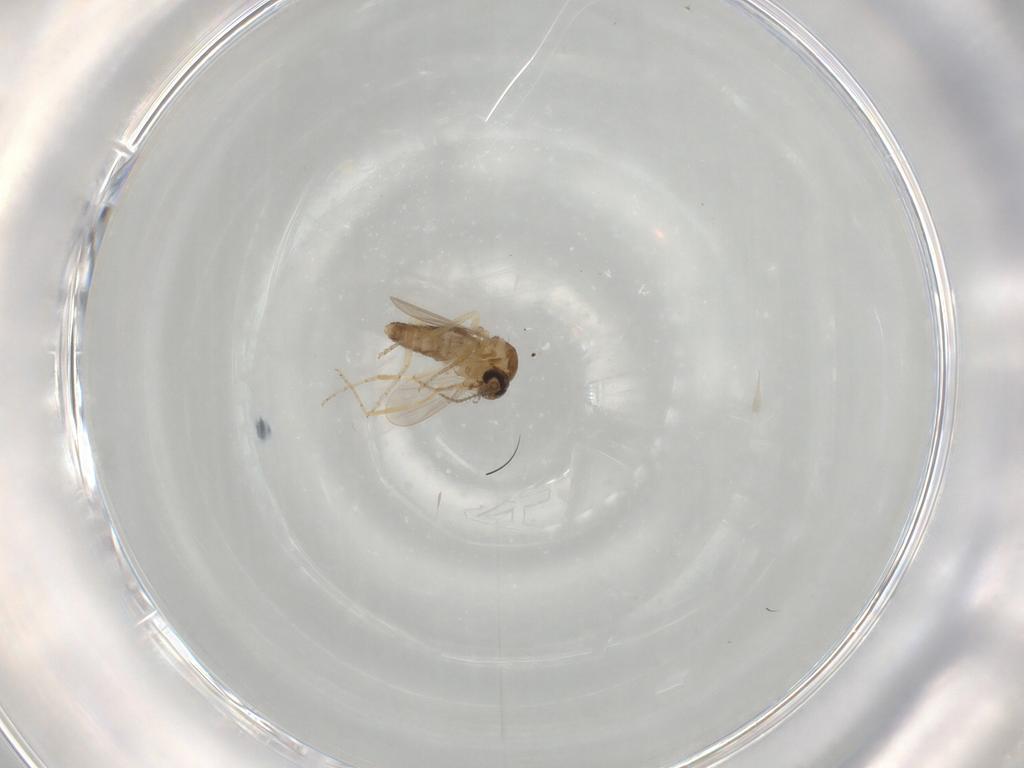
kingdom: Animalia
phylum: Arthropoda
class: Insecta
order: Diptera
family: Ceratopogonidae
